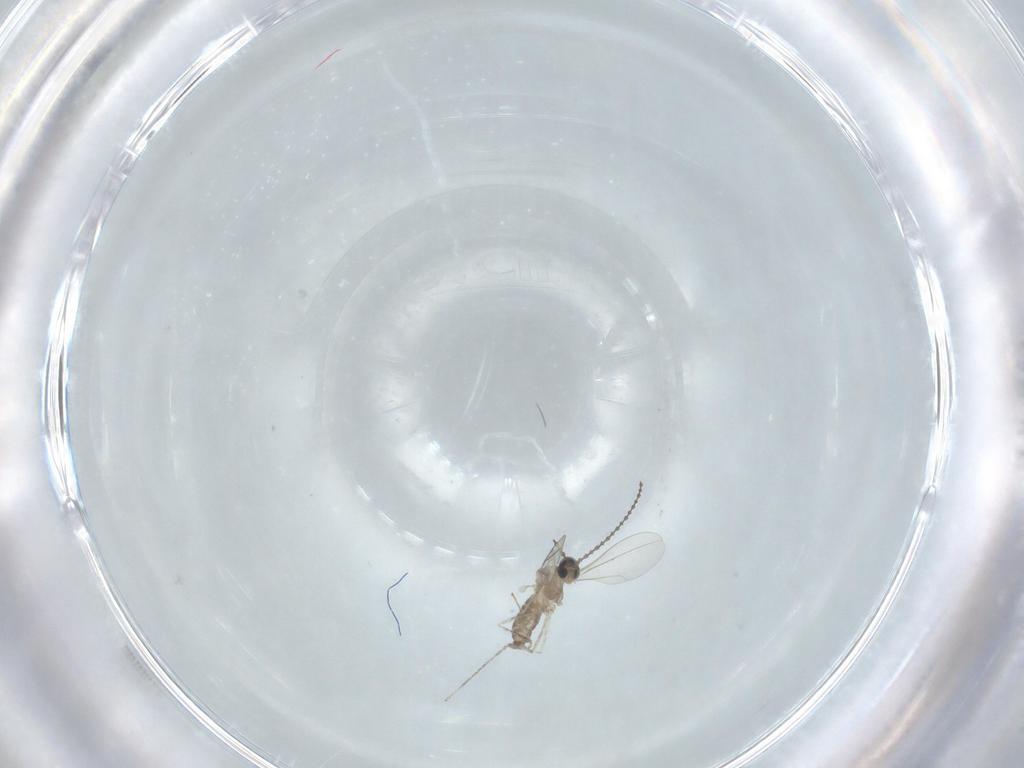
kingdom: Animalia
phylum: Arthropoda
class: Insecta
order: Diptera
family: Cecidomyiidae
